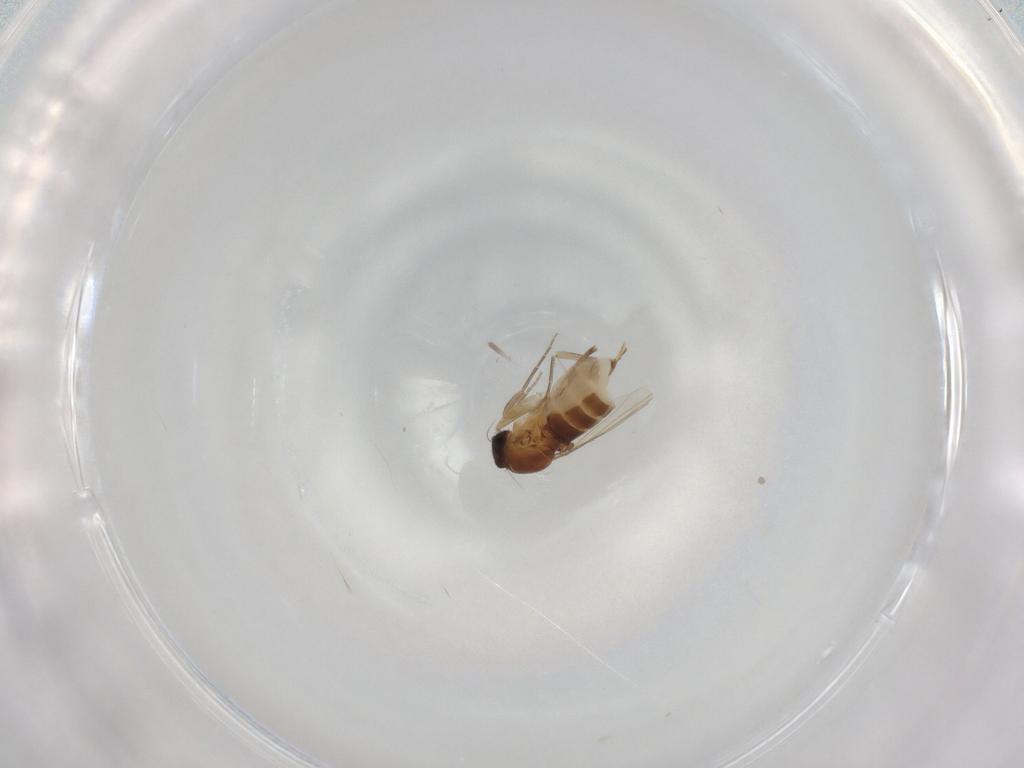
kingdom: Animalia
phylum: Arthropoda
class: Insecta
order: Diptera
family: Phoridae
